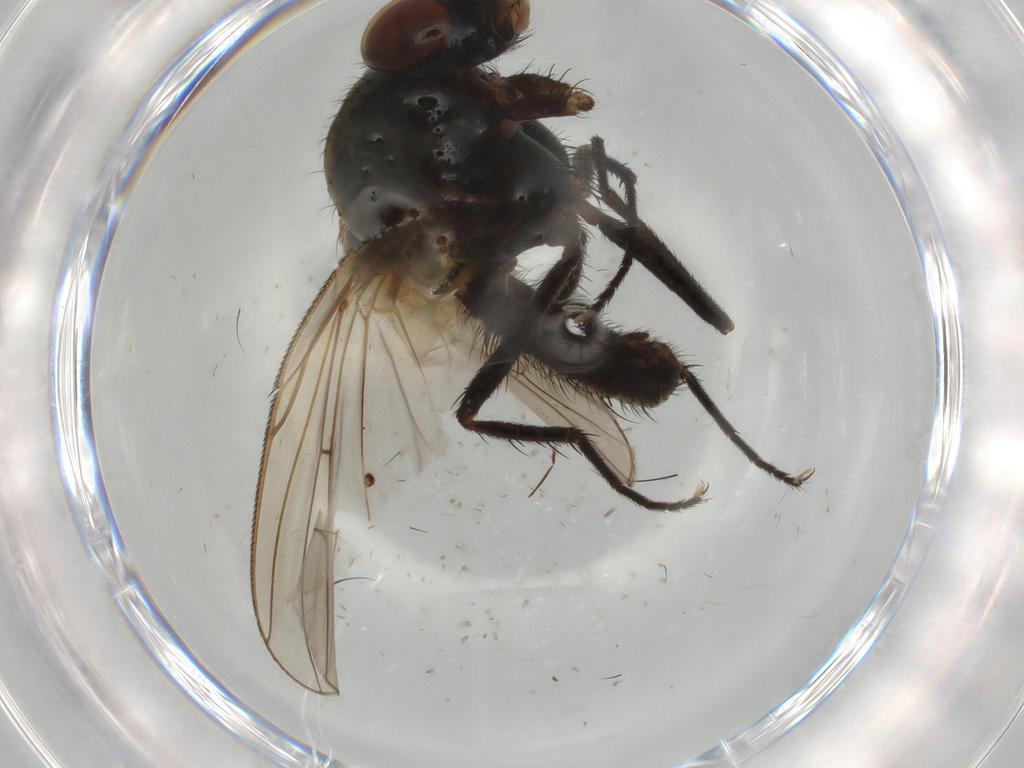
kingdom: Animalia
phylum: Arthropoda
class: Insecta
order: Diptera
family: Anthomyiidae
